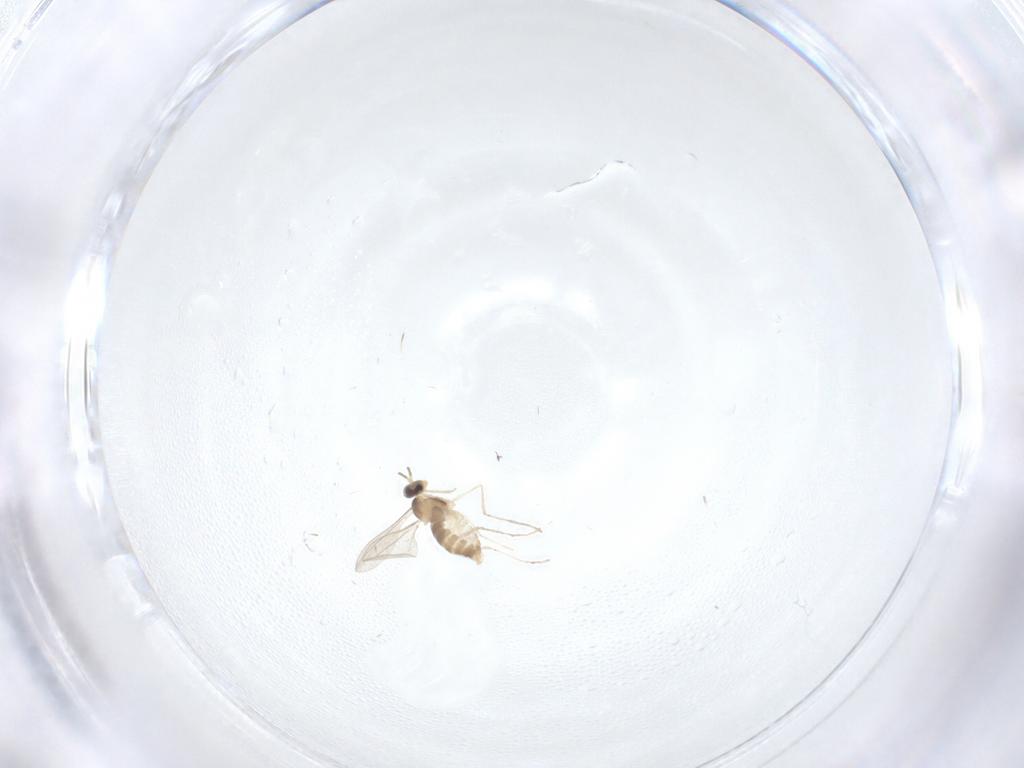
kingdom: Animalia
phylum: Arthropoda
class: Insecta
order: Diptera
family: Cecidomyiidae
